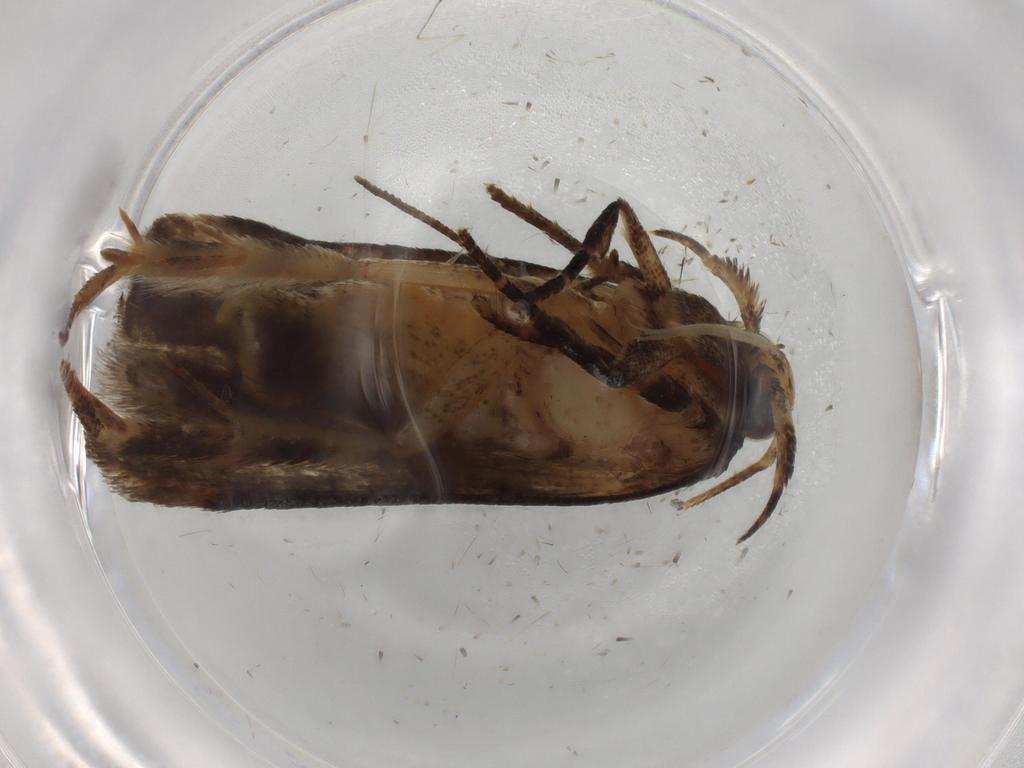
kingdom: Animalia
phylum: Arthropoda
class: Insecta
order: Lepidoptera
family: Gelechiidae
